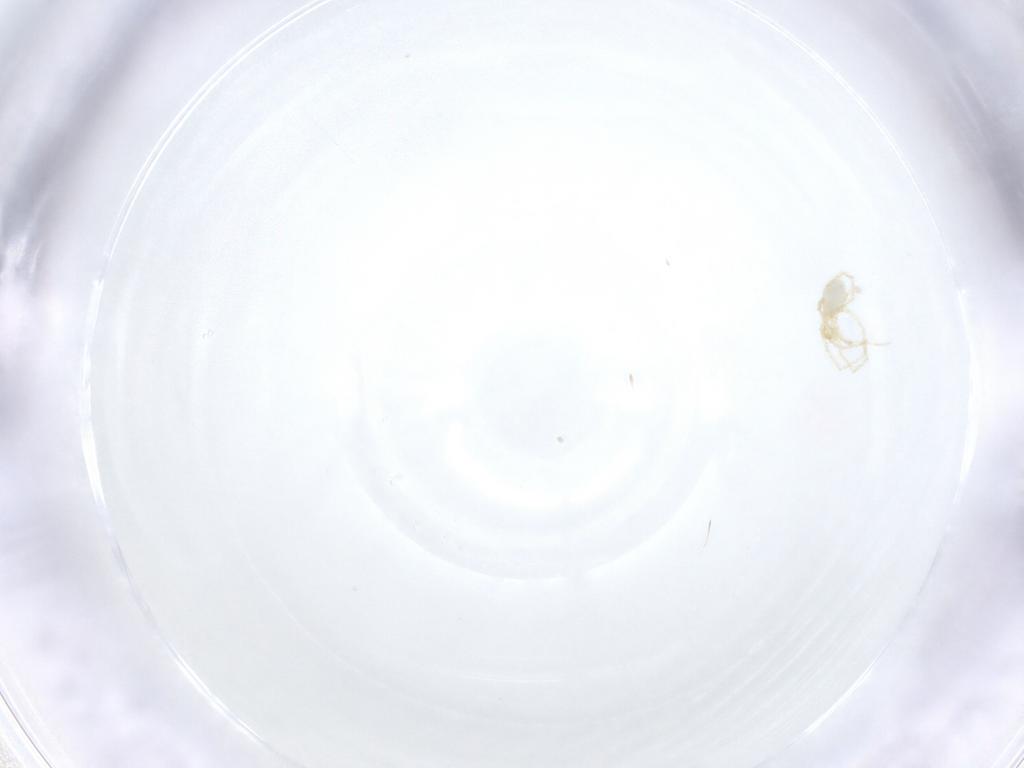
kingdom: Animalia
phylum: Arthropoda
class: Arachnida
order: Trombidiformes
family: Erythraeidae
